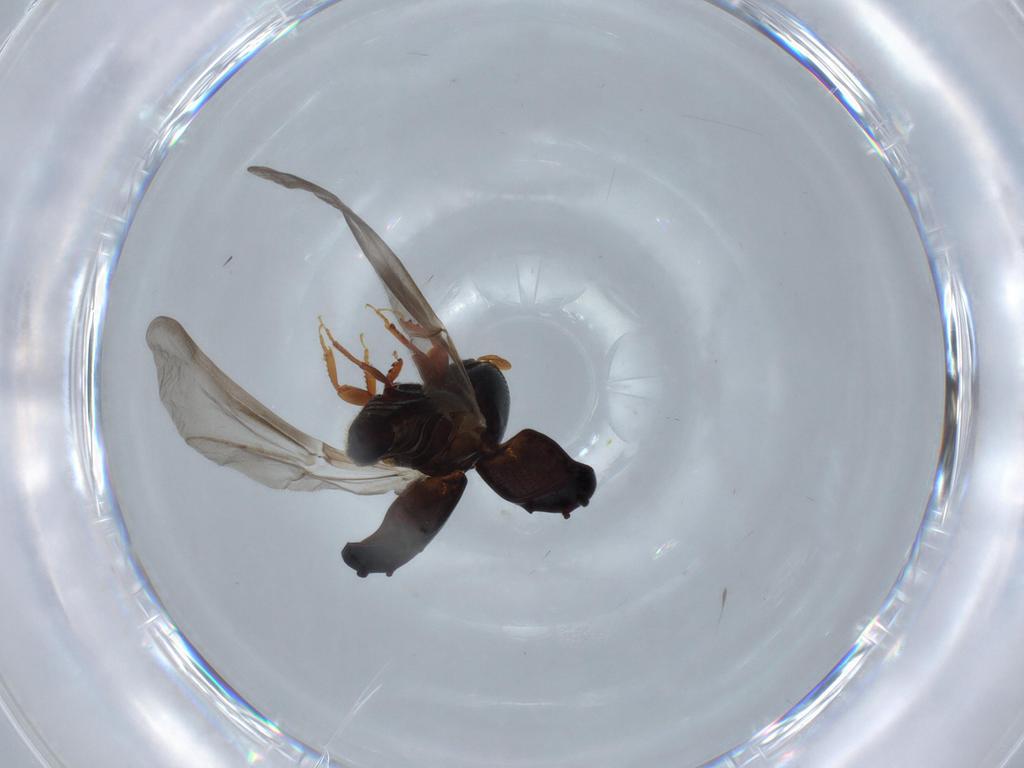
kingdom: Animalia
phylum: Arthropoda
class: Insecta
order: Coleoptera
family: Curculionidae
